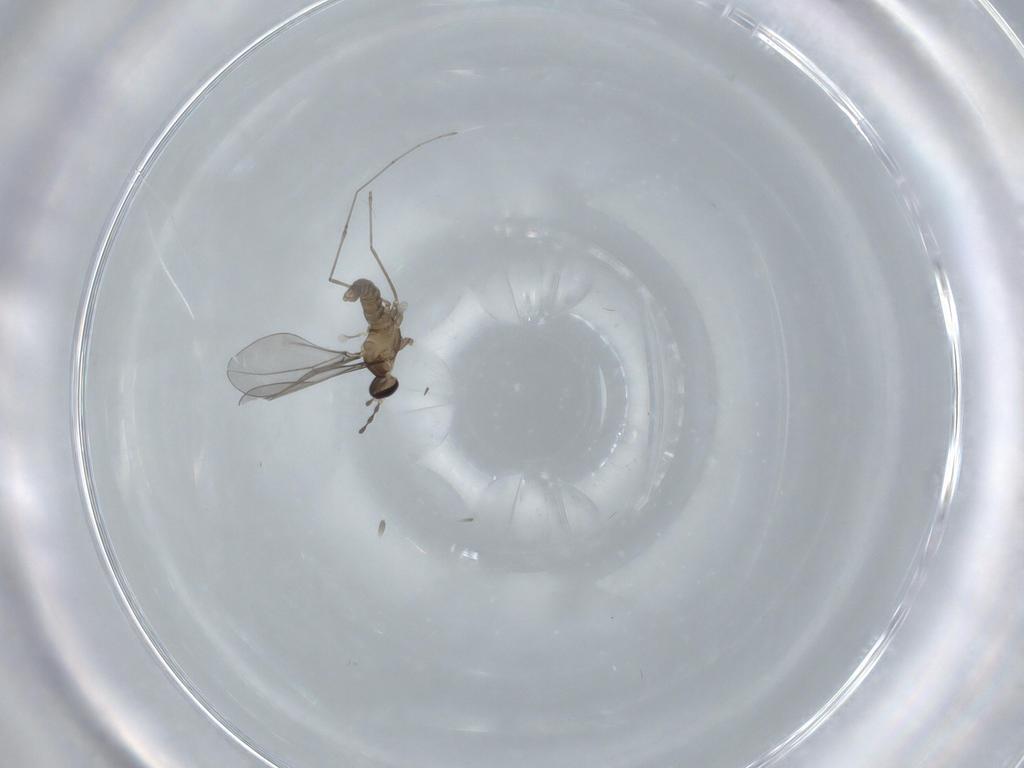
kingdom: Animalia
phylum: Arthropoda
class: Insecta
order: Diptera
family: Cecidomyiidae
